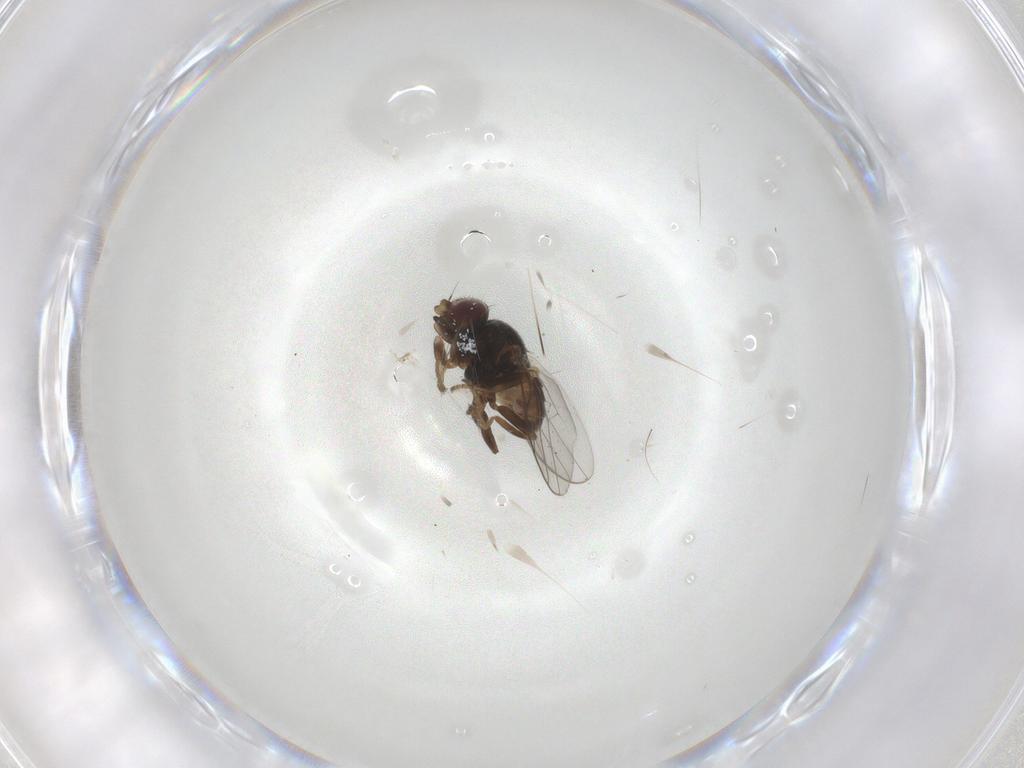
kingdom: Animalia
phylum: Arthropoda
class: Insecta
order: Diptera
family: Chloropidae
